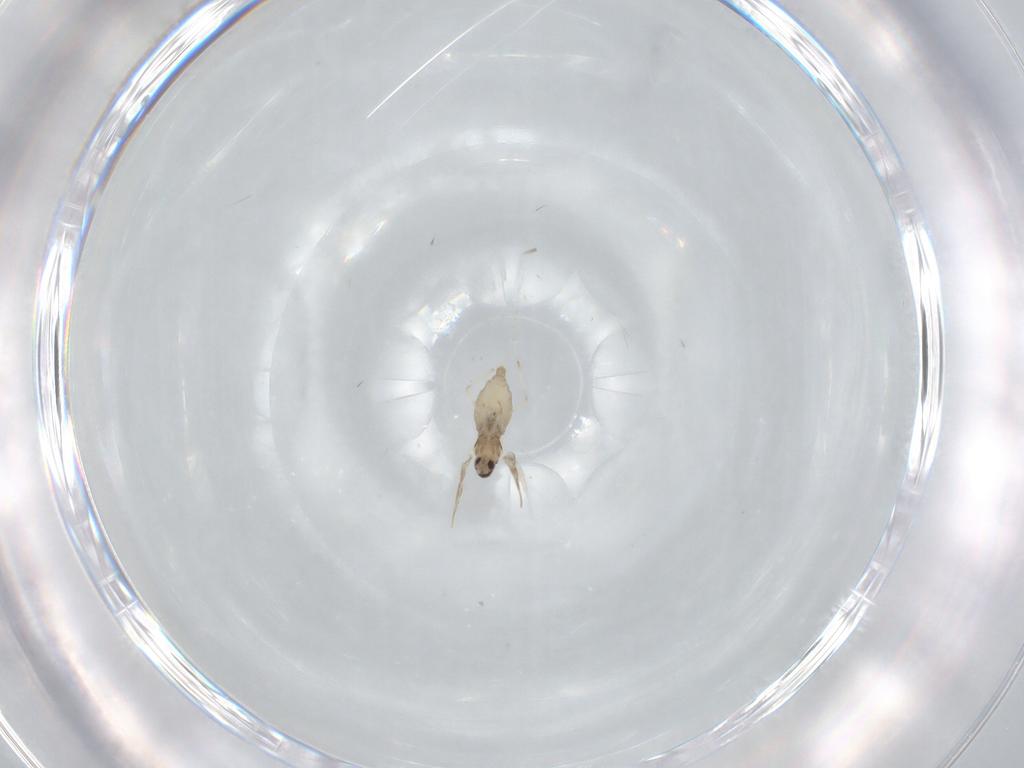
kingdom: Animalia
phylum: Arthropoda
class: Insecta
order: Diptera
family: Cecidomyiidae
